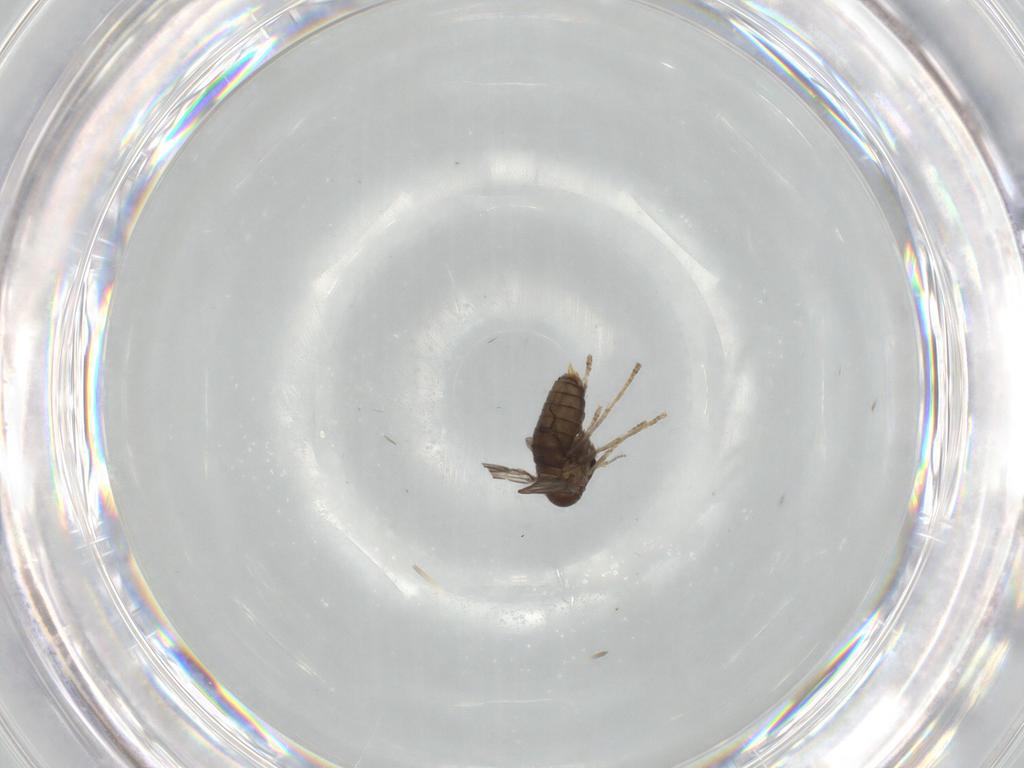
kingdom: Animalia
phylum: Arthropoda
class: Insecta
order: Diptera
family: Psychodidae
